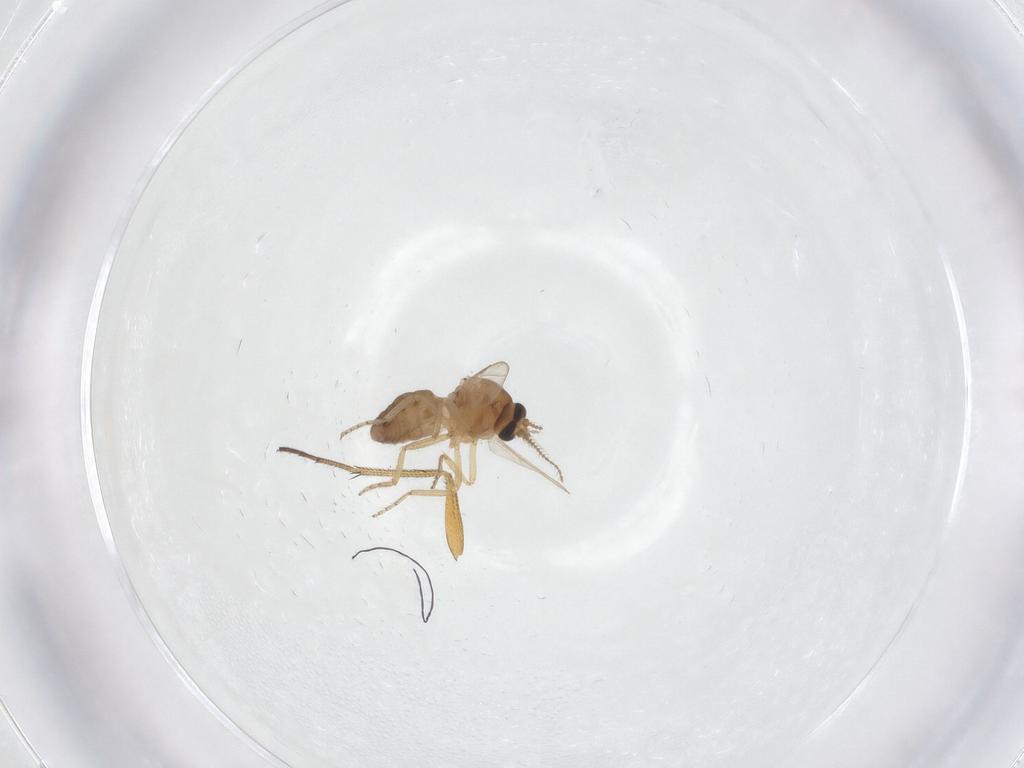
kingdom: Animalia
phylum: Arthropoda
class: Insecta
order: Diptera
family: Ceratopogonidae
